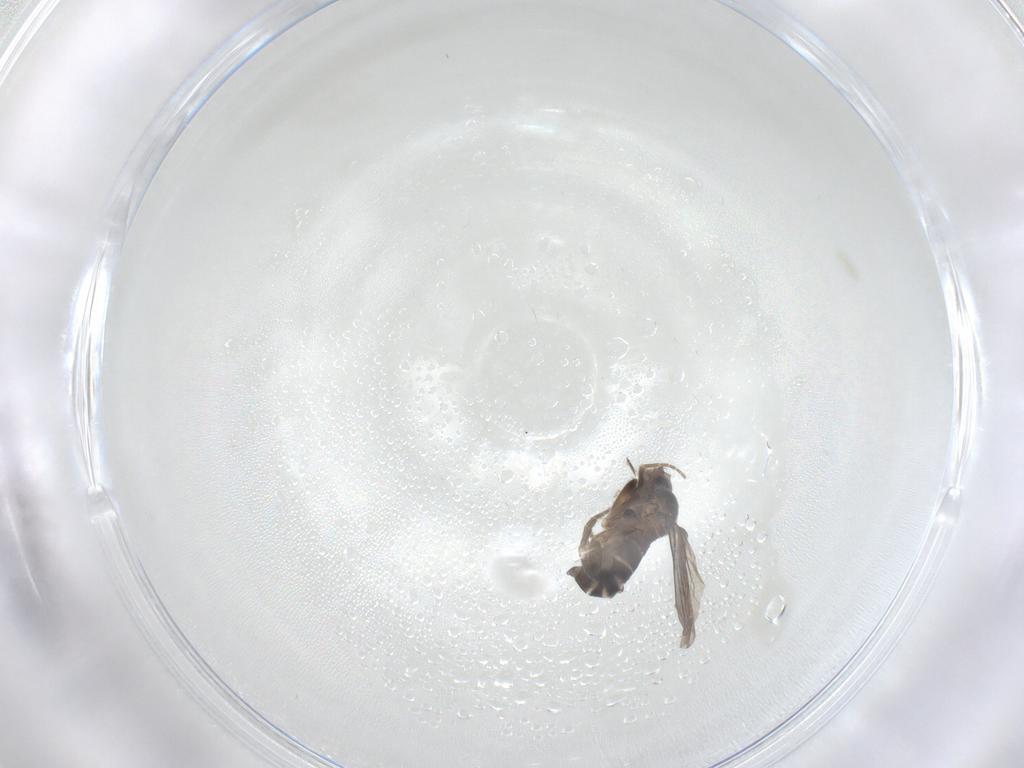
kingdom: Animalia
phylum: Arthropoda
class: Insecta
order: Diptera
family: Phoridae
